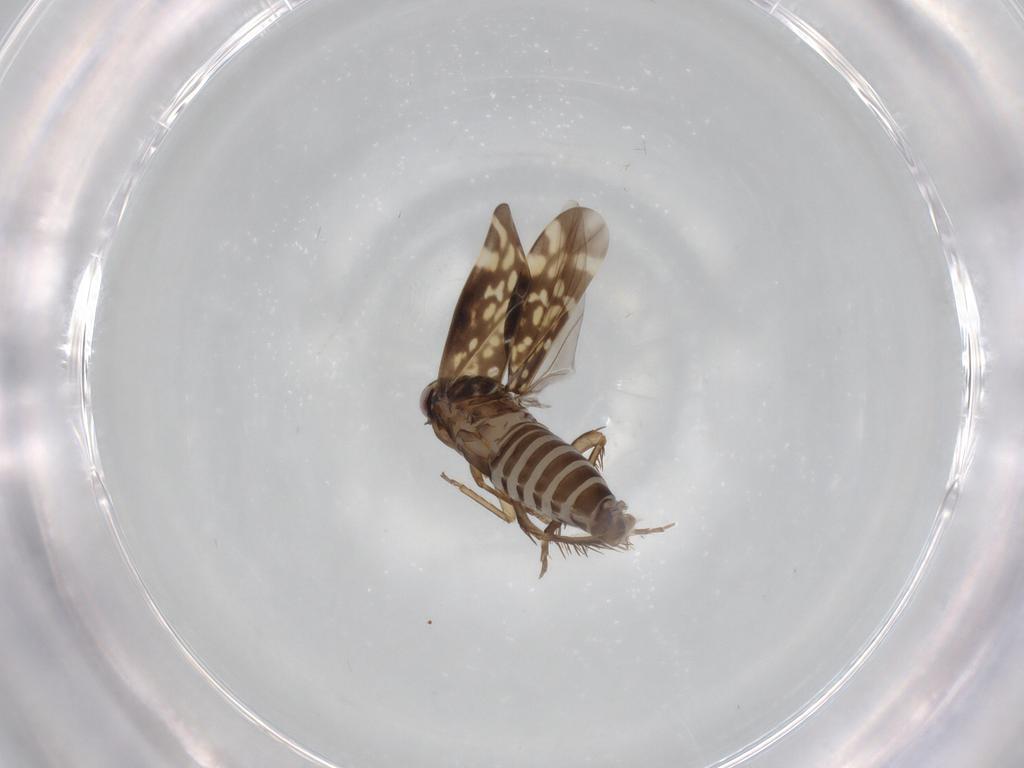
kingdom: Animalia
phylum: Arthropoda
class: Insecta
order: Hemiptera
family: Cicadellidae
